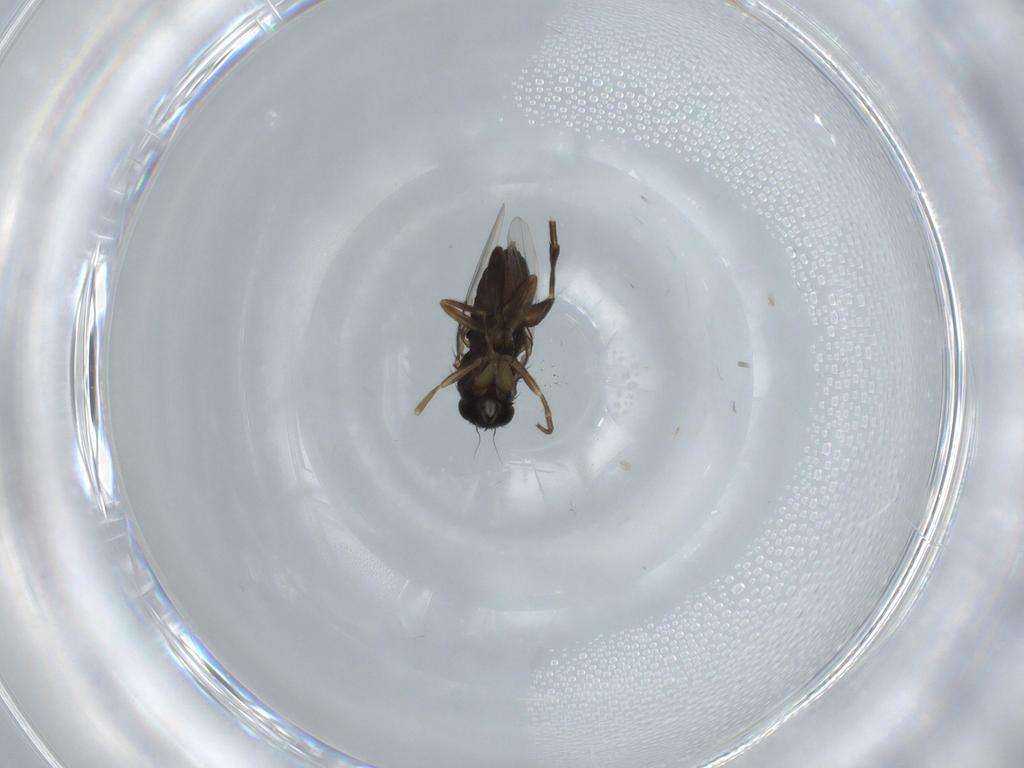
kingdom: Animalia
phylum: Arthropoda
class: Insecta
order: Diptera
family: Phoridae
